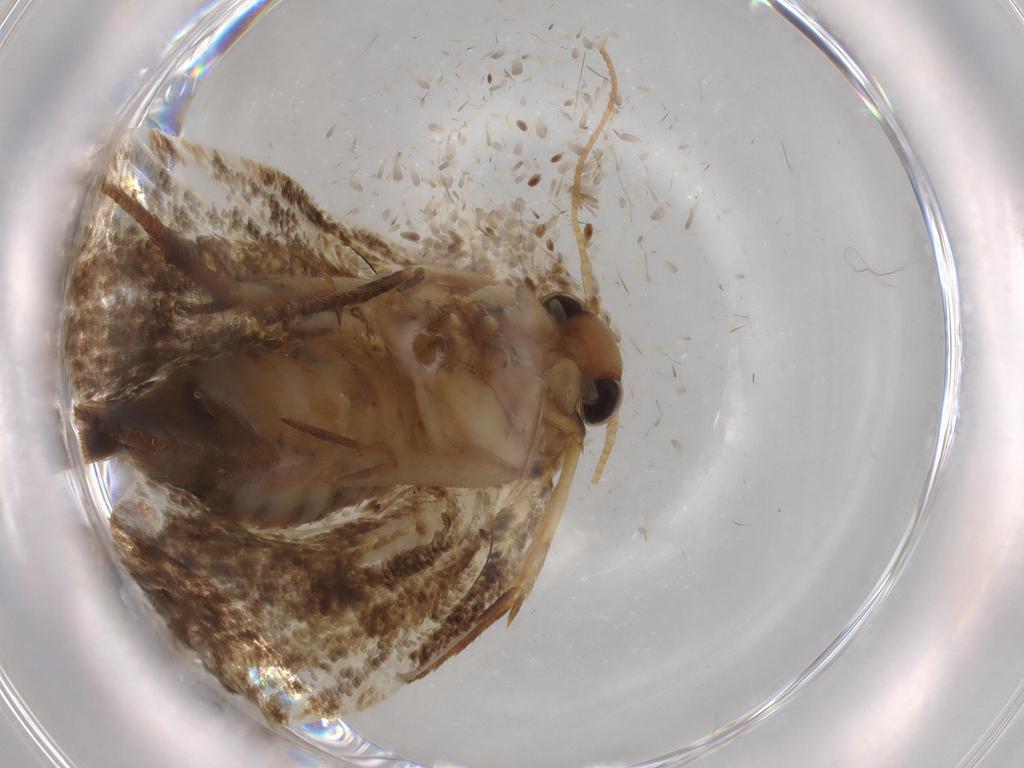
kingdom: Animalia
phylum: Arthropoda
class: Insecta
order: Lepidoptera
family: Tineidae
